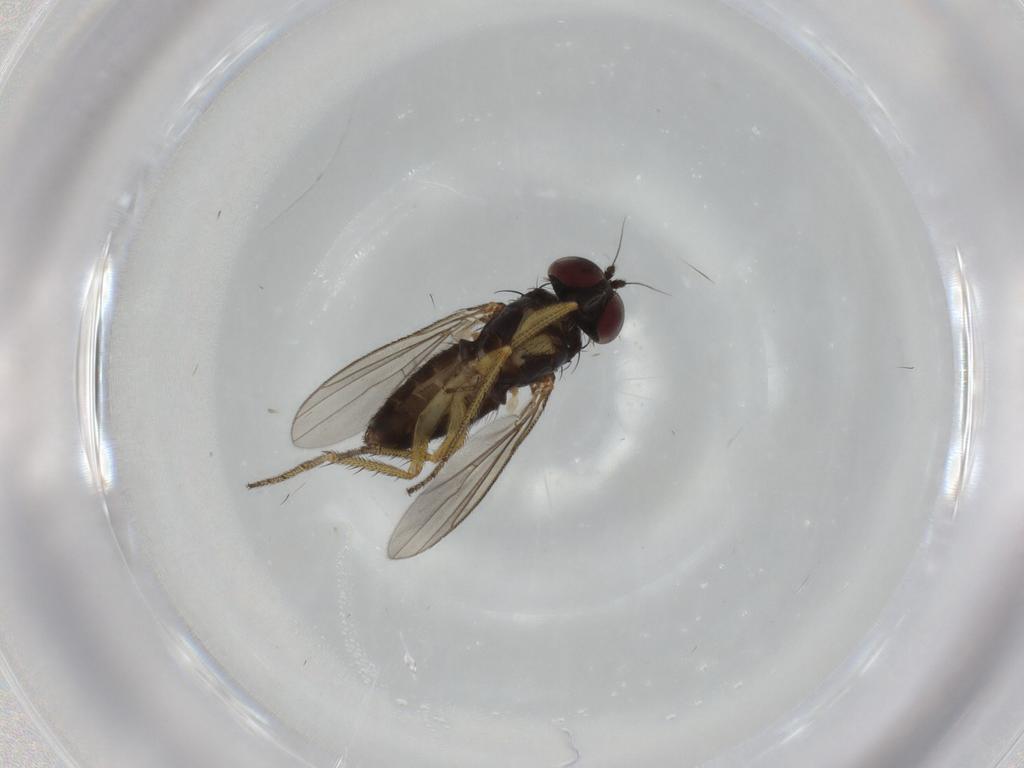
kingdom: Animalia
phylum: Arthropoda
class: Insecta
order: Diptera
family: Dolichopodidae
